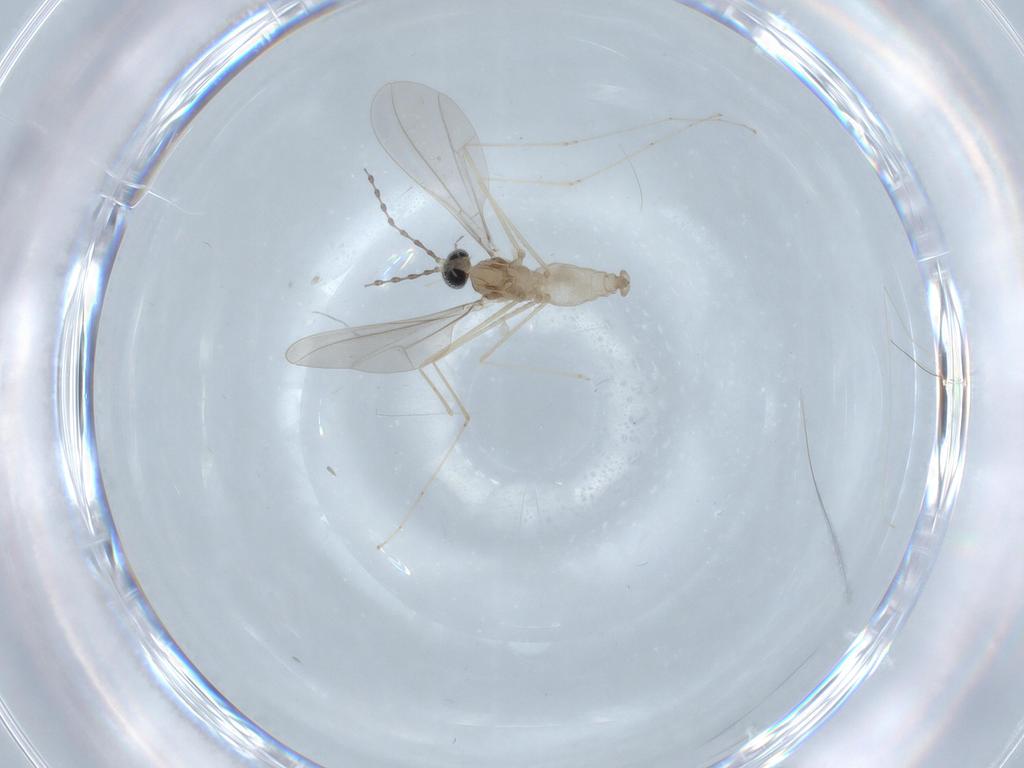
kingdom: Animalia
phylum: Arthropoda
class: Insecta
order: Diptera
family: Cecidomyiidae
